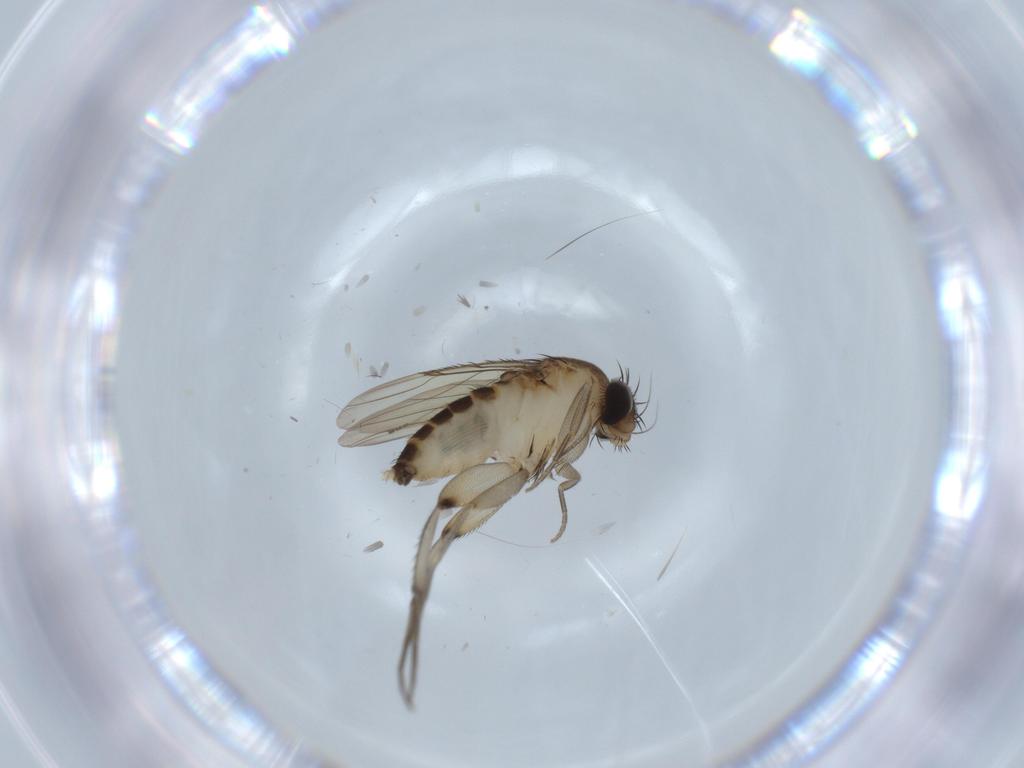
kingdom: Animalia
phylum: Arthropoda
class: Insecta
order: Diptera
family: Phoridae
